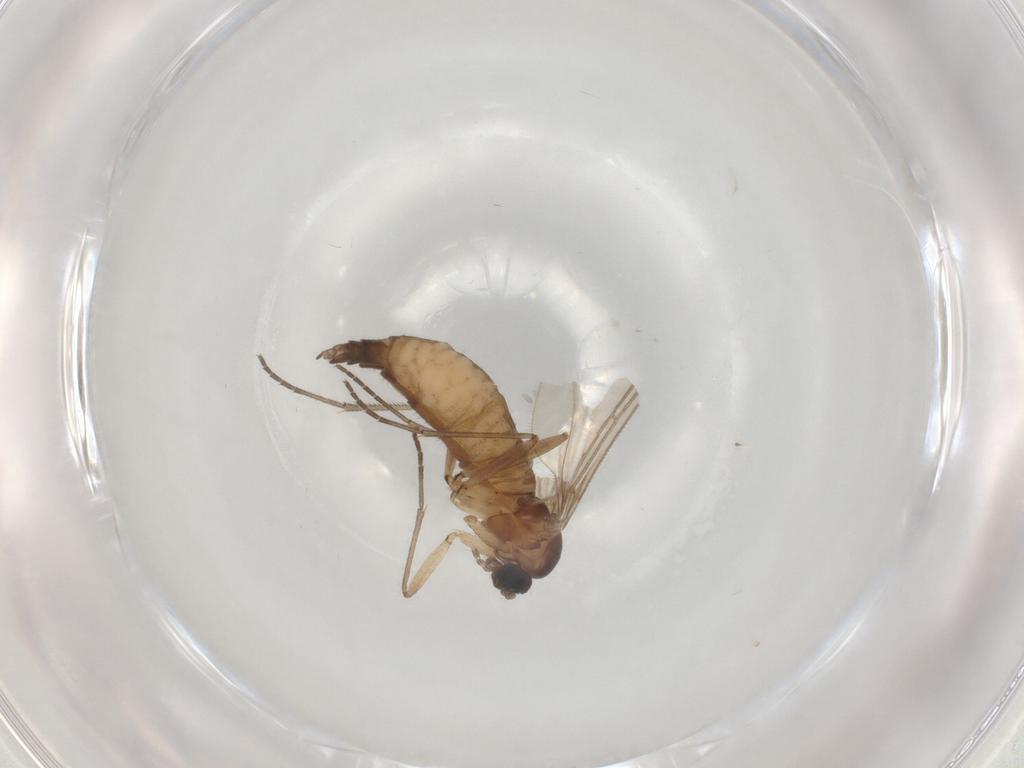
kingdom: Animalia
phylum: Arthropoda
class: Insecta
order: Diptera
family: Sciaridae
